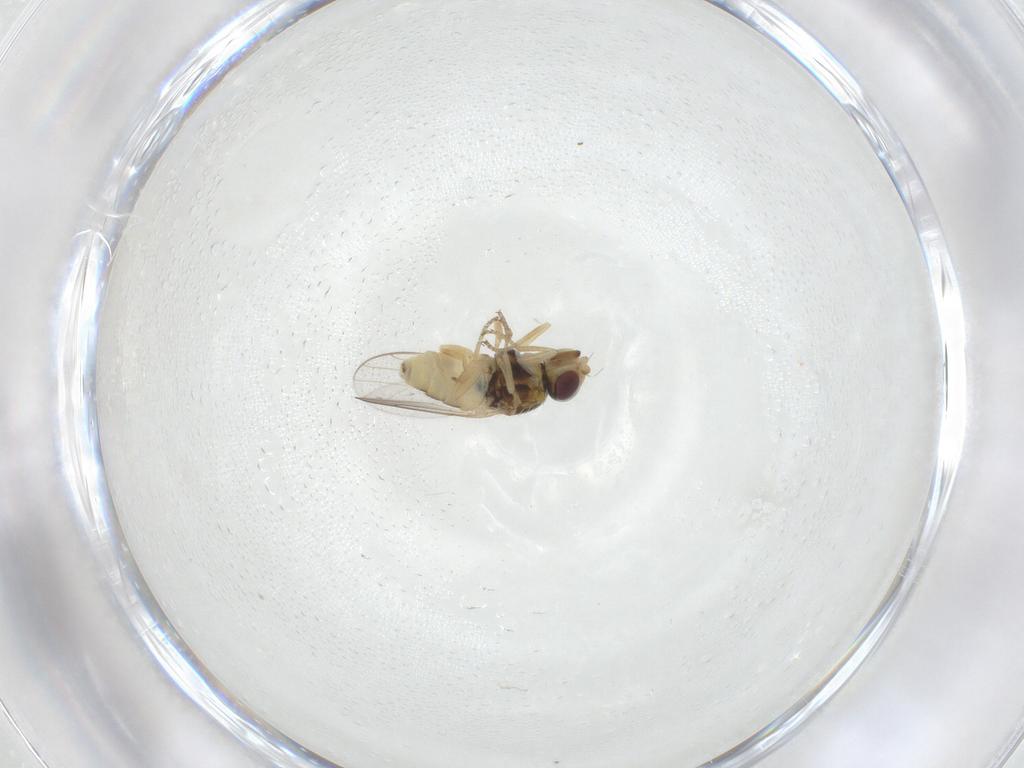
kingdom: Animalia
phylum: Arthropoda
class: Insecta
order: Diptera
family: Chloropidae
